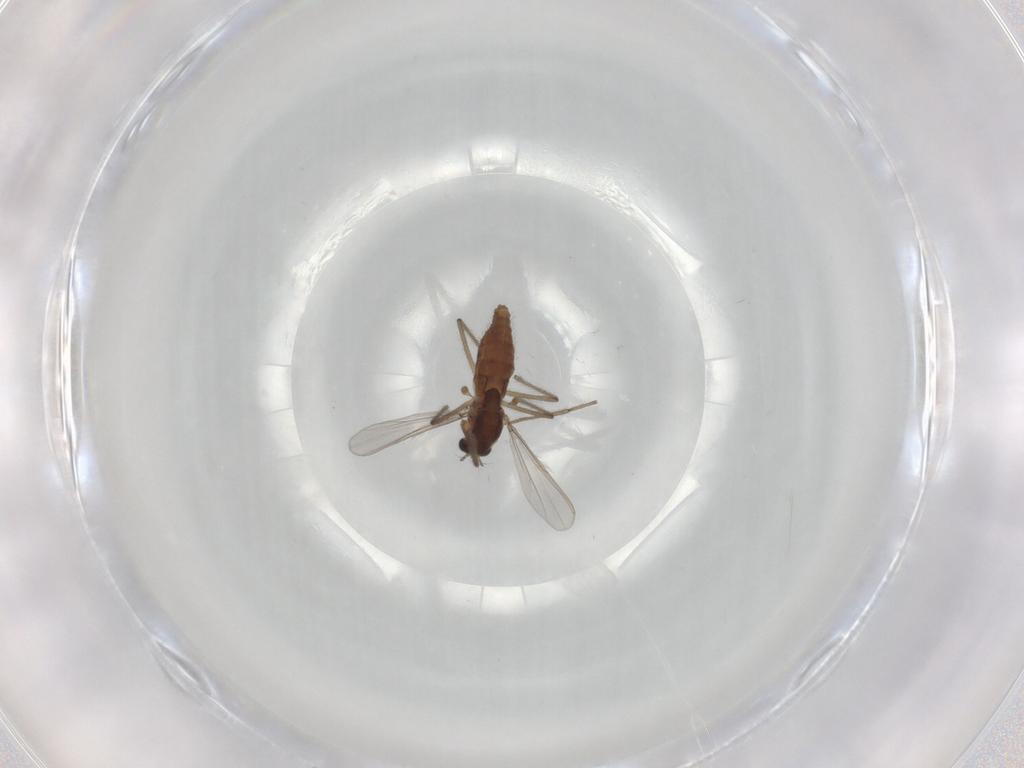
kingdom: Animalia
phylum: Arthropoda
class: Insecta
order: Diptera
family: Chironomidae
